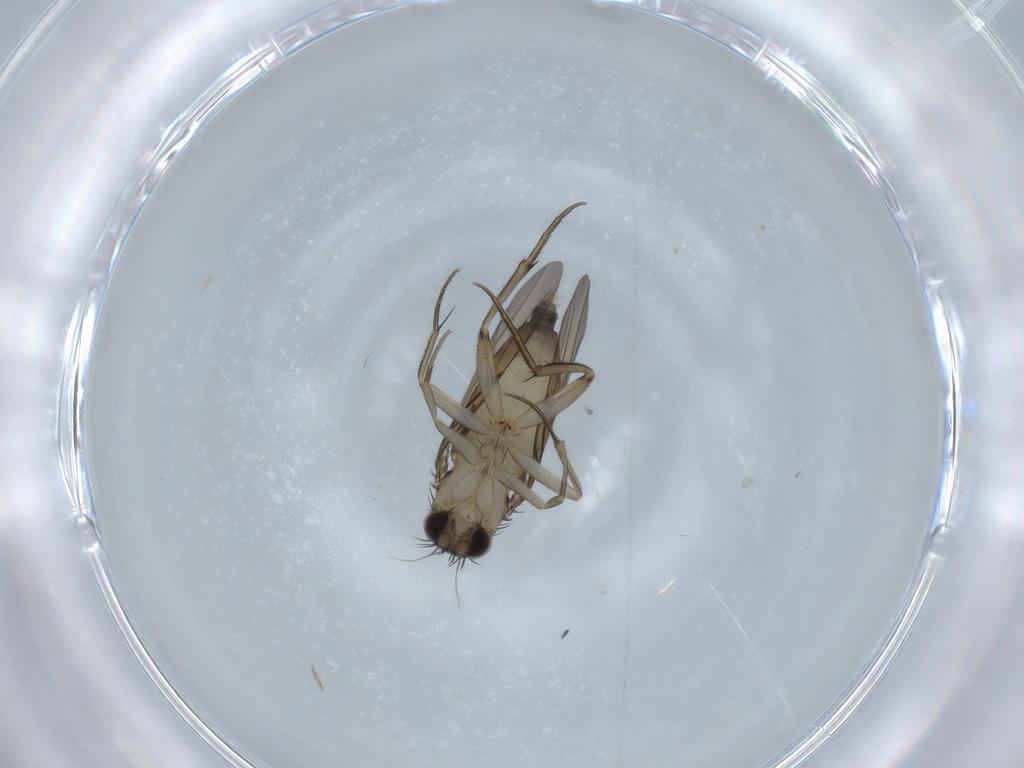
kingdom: Animalia
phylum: Arthropoda
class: Insecta
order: Diptera
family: Phoridae
